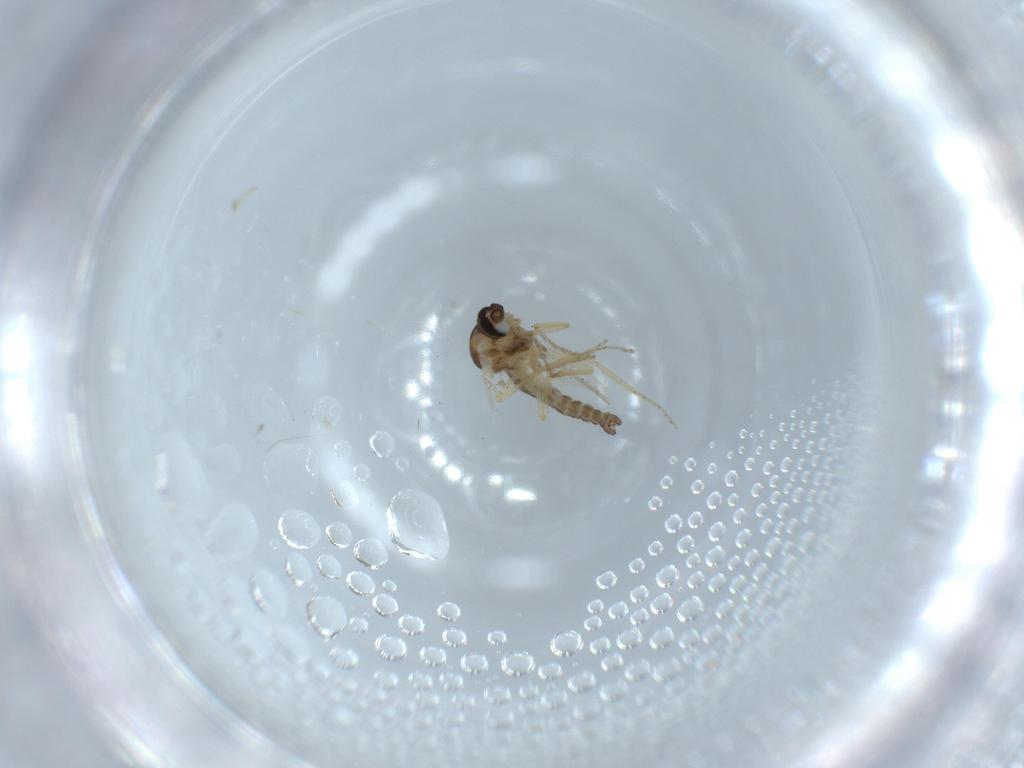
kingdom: Animalia
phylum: Arthropoda
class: Insecta
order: Diptera
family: Ceratopogonidae
